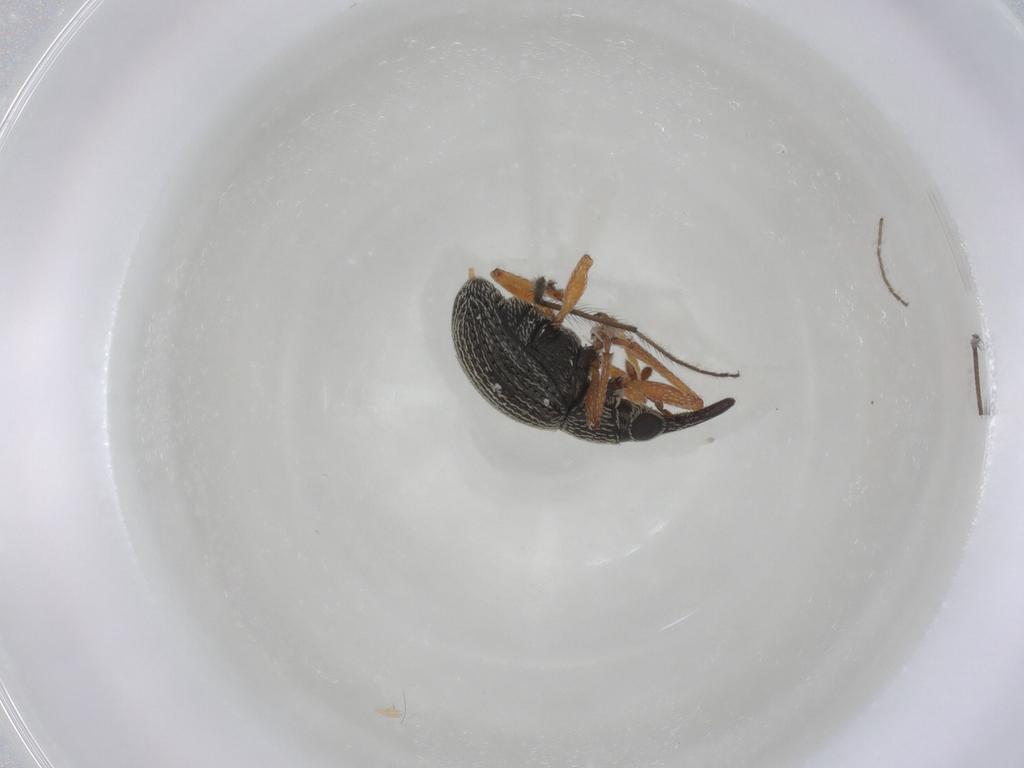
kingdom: Animalia
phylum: Arthropoda
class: Insecta
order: Coleoptera
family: Brentidae
